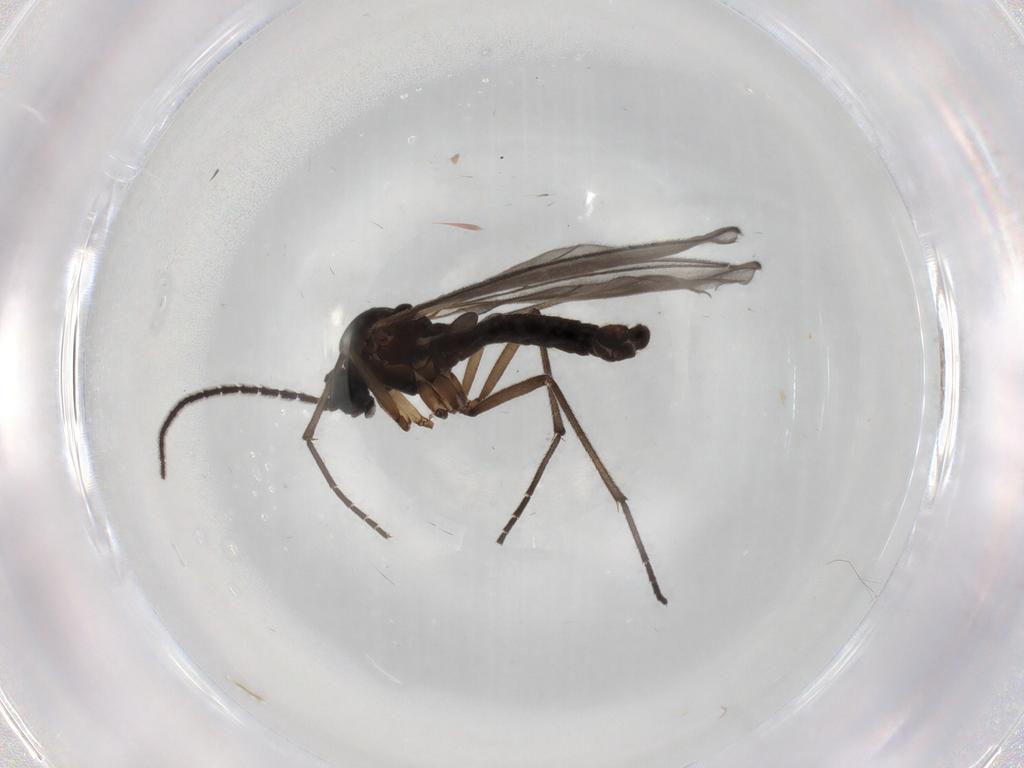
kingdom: Animalia
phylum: Arthropoda
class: Insecta
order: Diptera
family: Sciaridae
